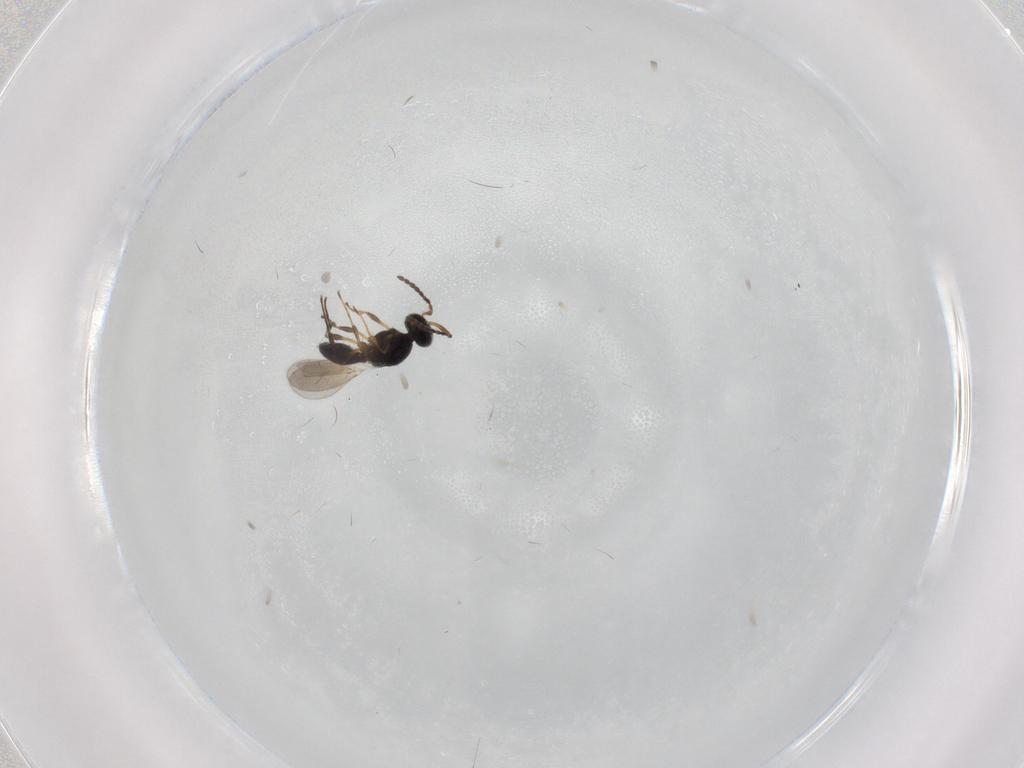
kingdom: Animalia
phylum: Arthropoda
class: Insecta
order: Hymenoptera
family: Platygastridae
